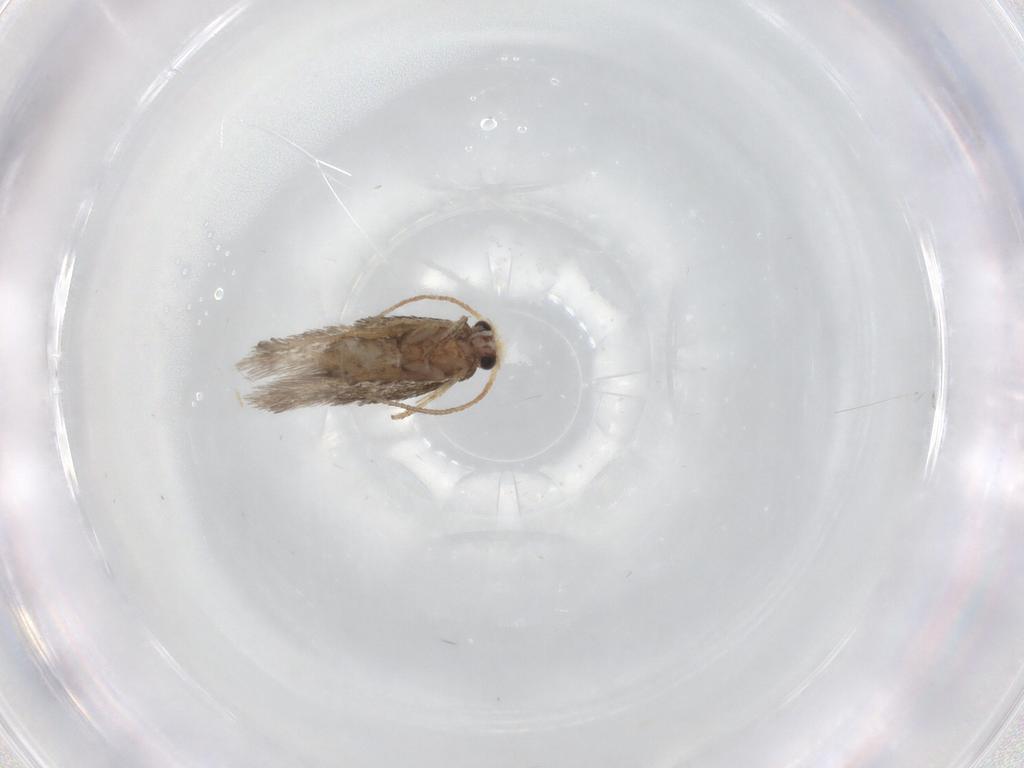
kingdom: Animalia
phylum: Arthropoda
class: Insecta
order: Lepidoptera
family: Nepticulidae
